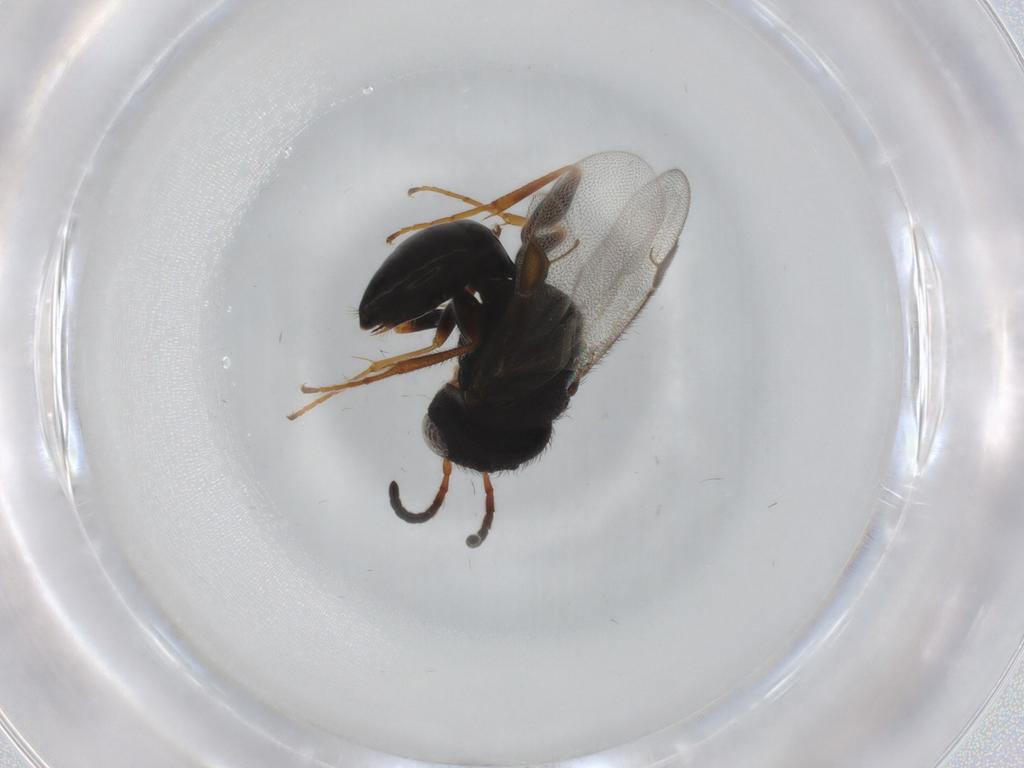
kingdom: Animalia
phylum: Arthropoda
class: Insecta
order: Hymenoptera
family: Dryinidae
